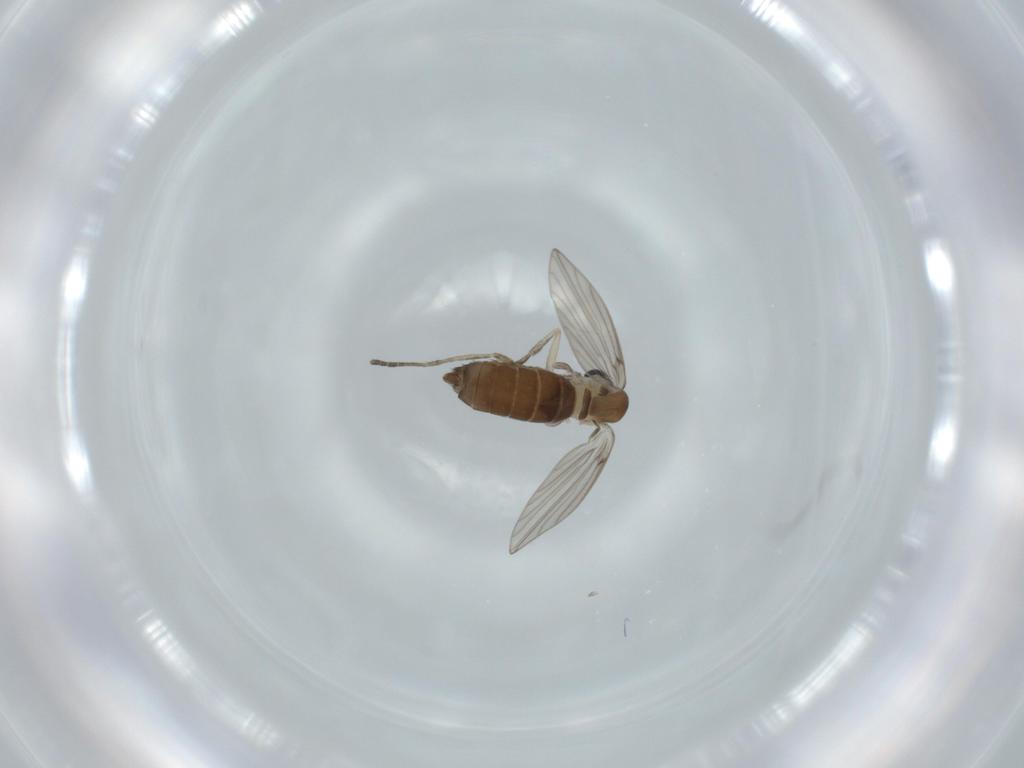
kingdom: Animalia
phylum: Arthropoda
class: Insecta
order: Diptera
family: Psychodidae
